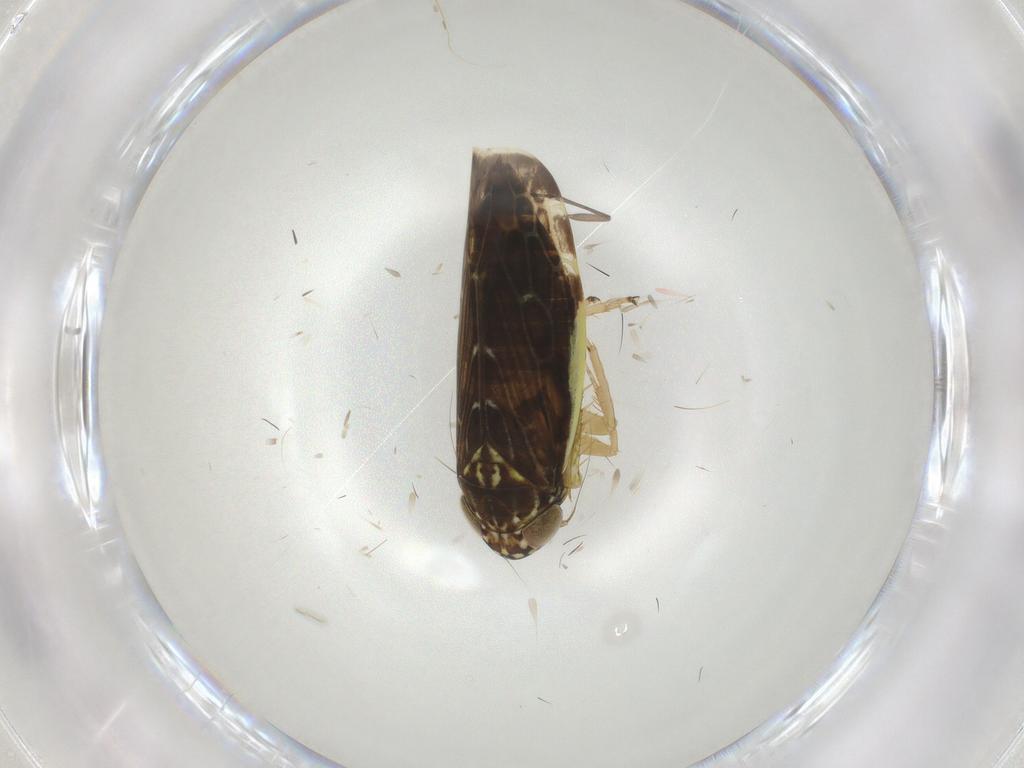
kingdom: Animalia
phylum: Arthropoda
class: Insecta
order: Hemiptera
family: Cicadellidae
